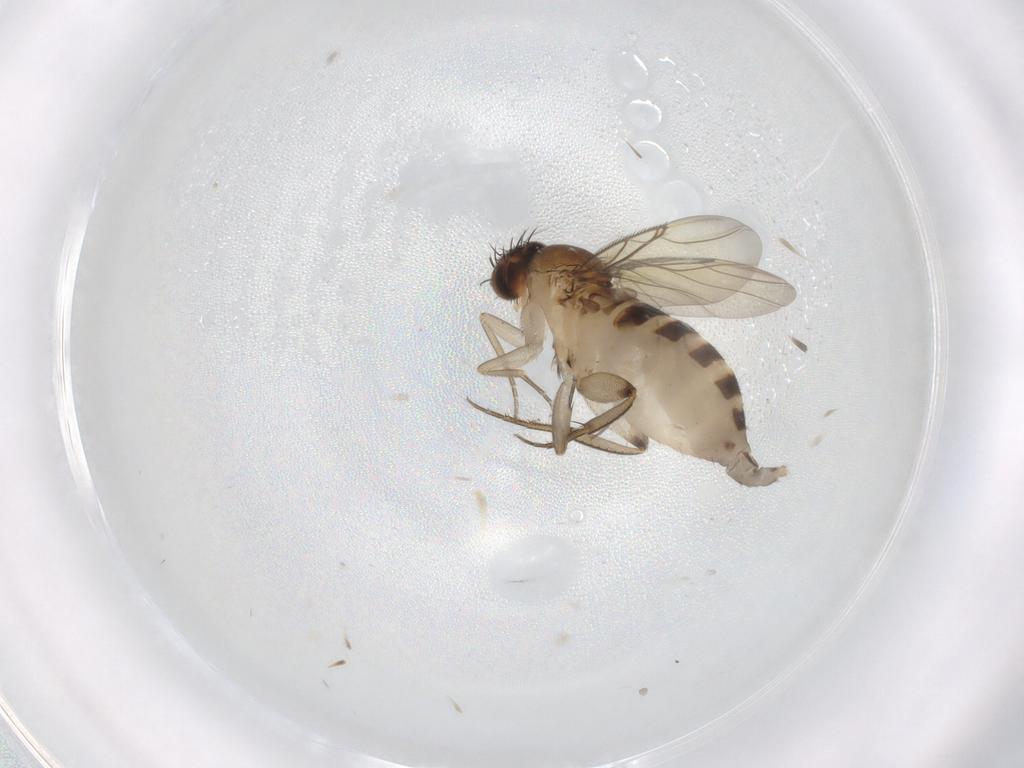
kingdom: Animalia
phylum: Arthropoda
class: Insecta
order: Diptera
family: Phoridae
